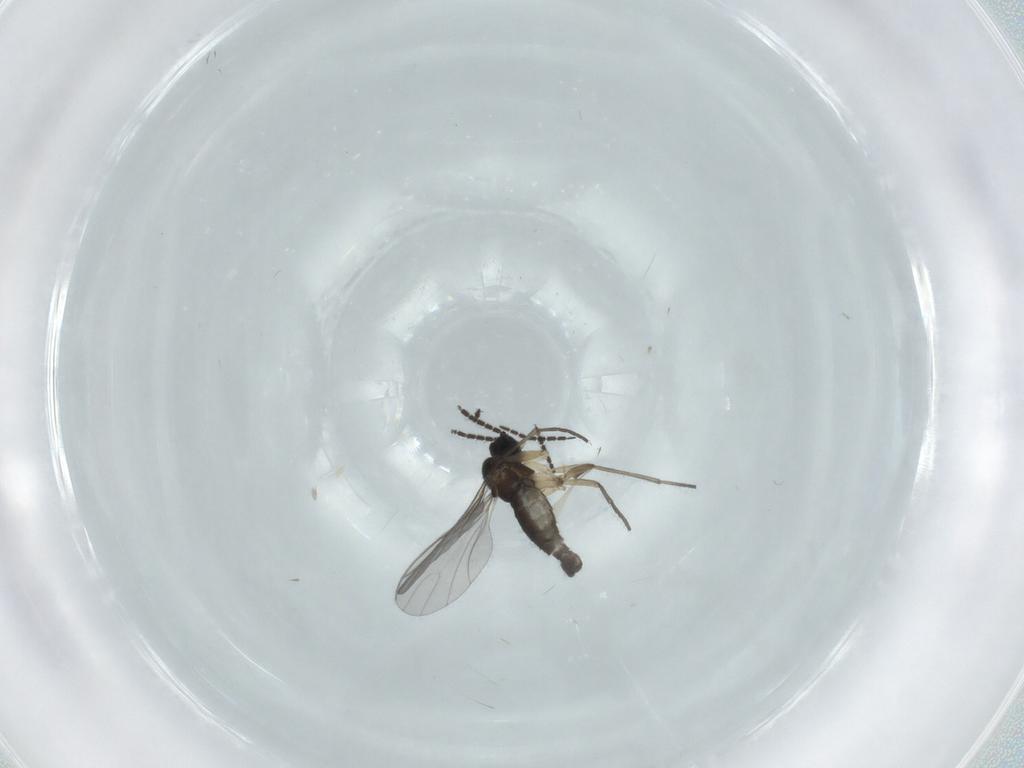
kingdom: Animalia
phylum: Arthropoda
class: Insecta
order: Diptera
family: Sciaridae
